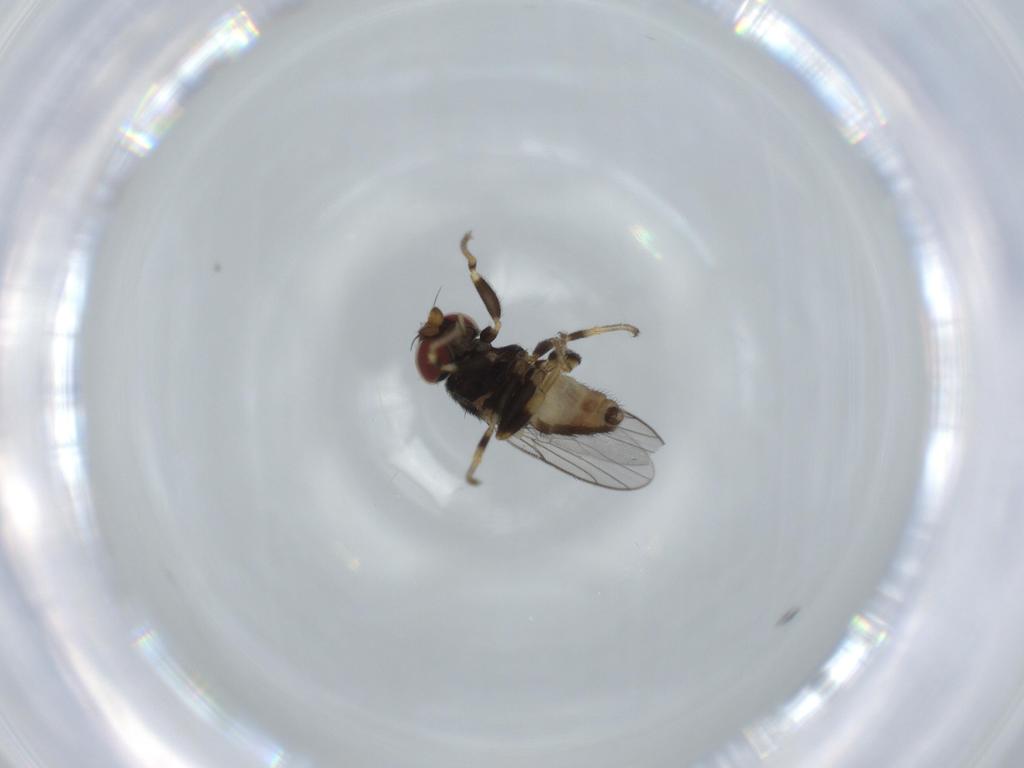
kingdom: Animalia
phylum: Arthropoda
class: Insecta
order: Diptera
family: Chloropidae
